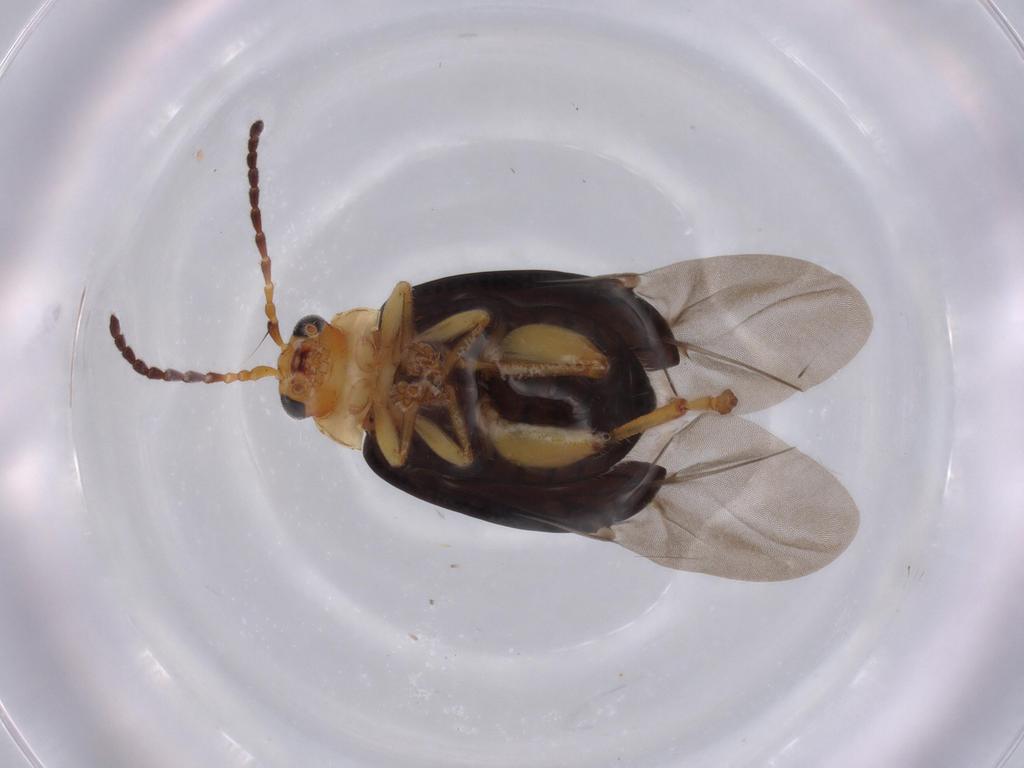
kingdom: Animalia
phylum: Arthropoda
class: Insecta
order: Coleoptera
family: Chrysomelidae
